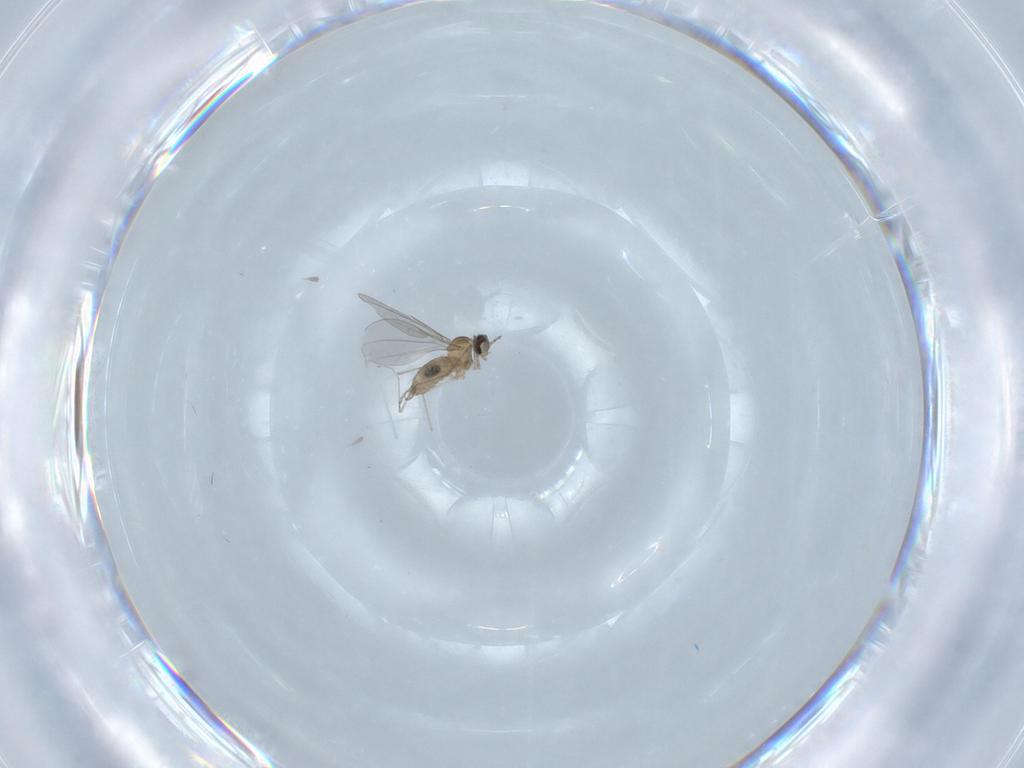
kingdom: Animalia
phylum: Arthropoda
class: Insecta
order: Diptera
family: Cecidomyiidae
